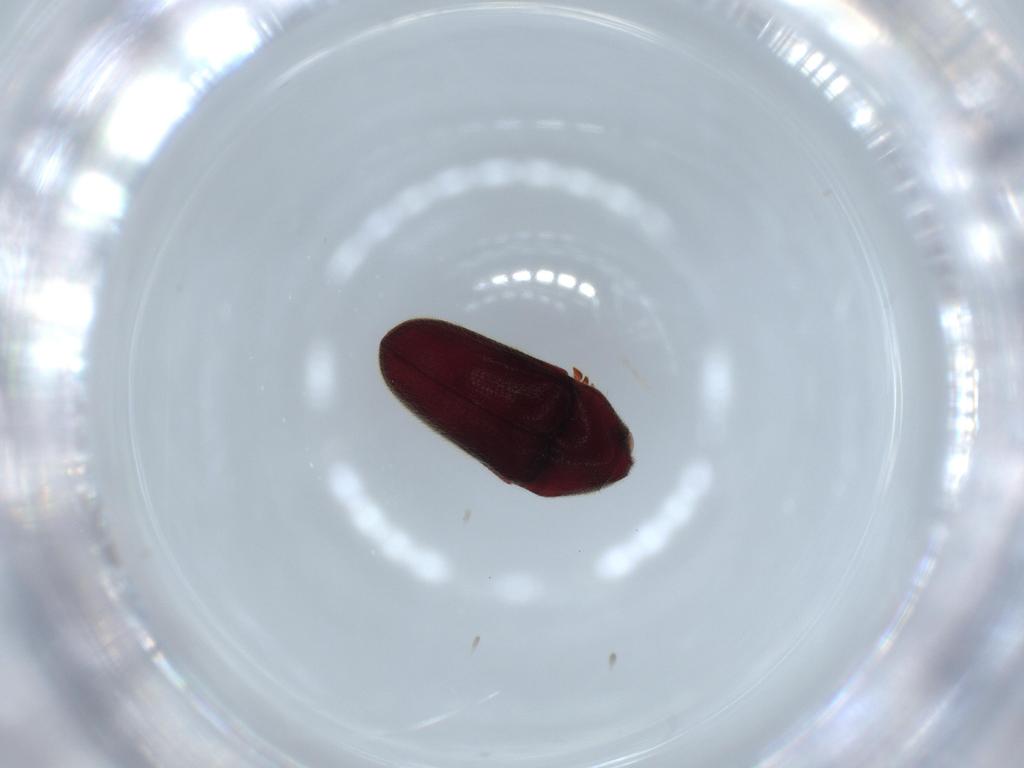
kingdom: Animalia
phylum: Arthropoda
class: Insecta
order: Coleoptera
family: Throscidae
